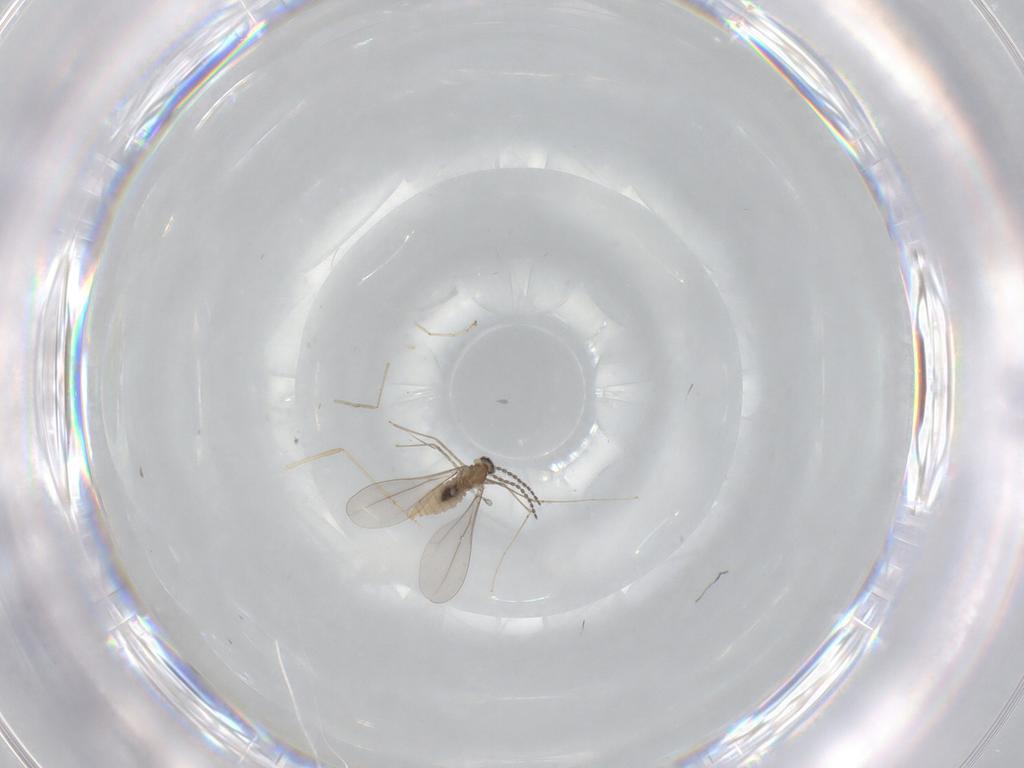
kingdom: Animalia
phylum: Arthropoda
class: Insecta
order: Diptera
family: Cecidomyiidae
